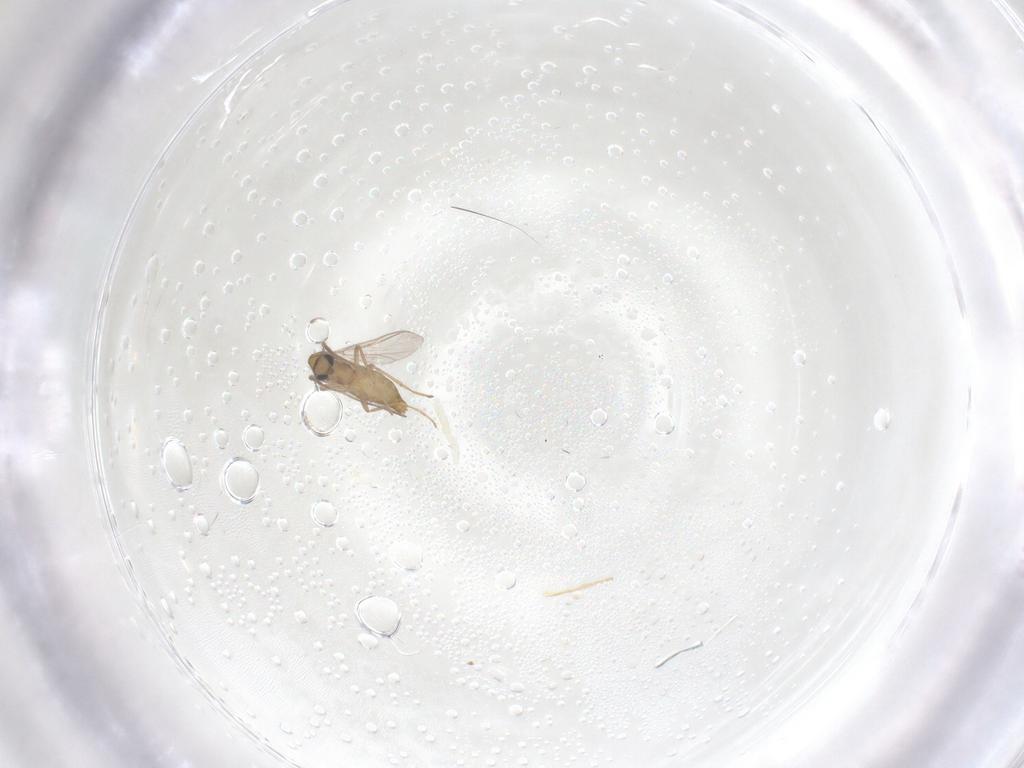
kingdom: Animalia
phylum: Arthropoda
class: Insecta
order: Diptera
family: Chironomidae
